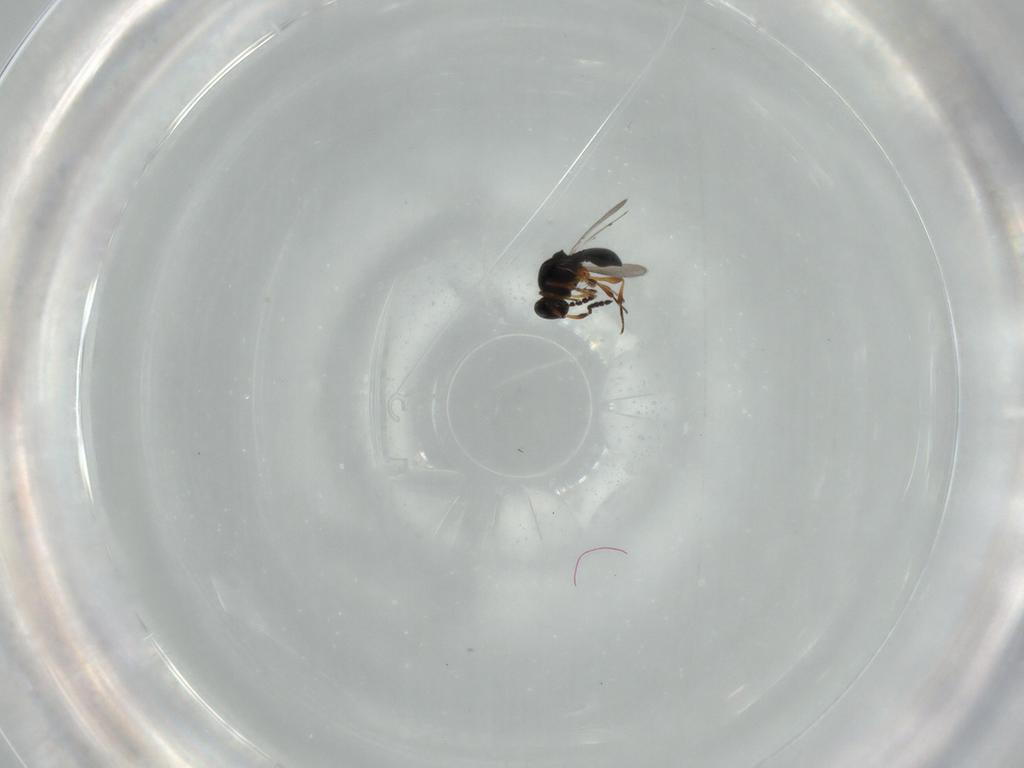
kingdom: Animalia
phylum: Arthropoda
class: Insecta
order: Hymenoptera
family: Platygastridae
